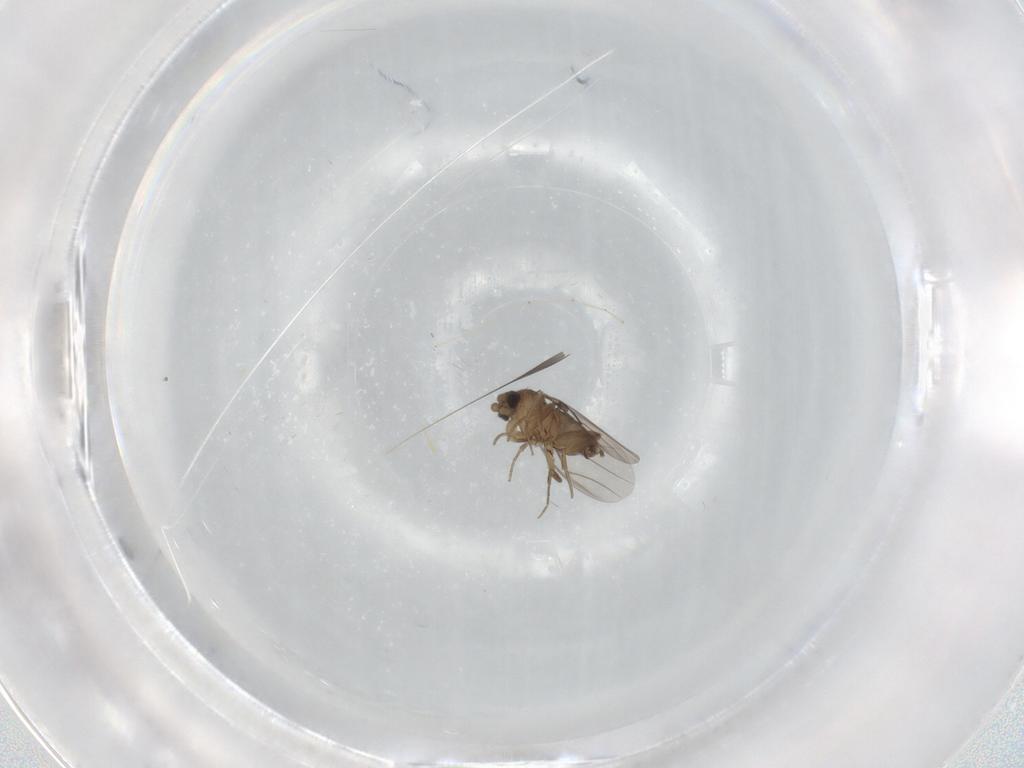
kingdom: Animalia
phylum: Arthropoda
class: Insecta
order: Diptera
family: Phoridae
